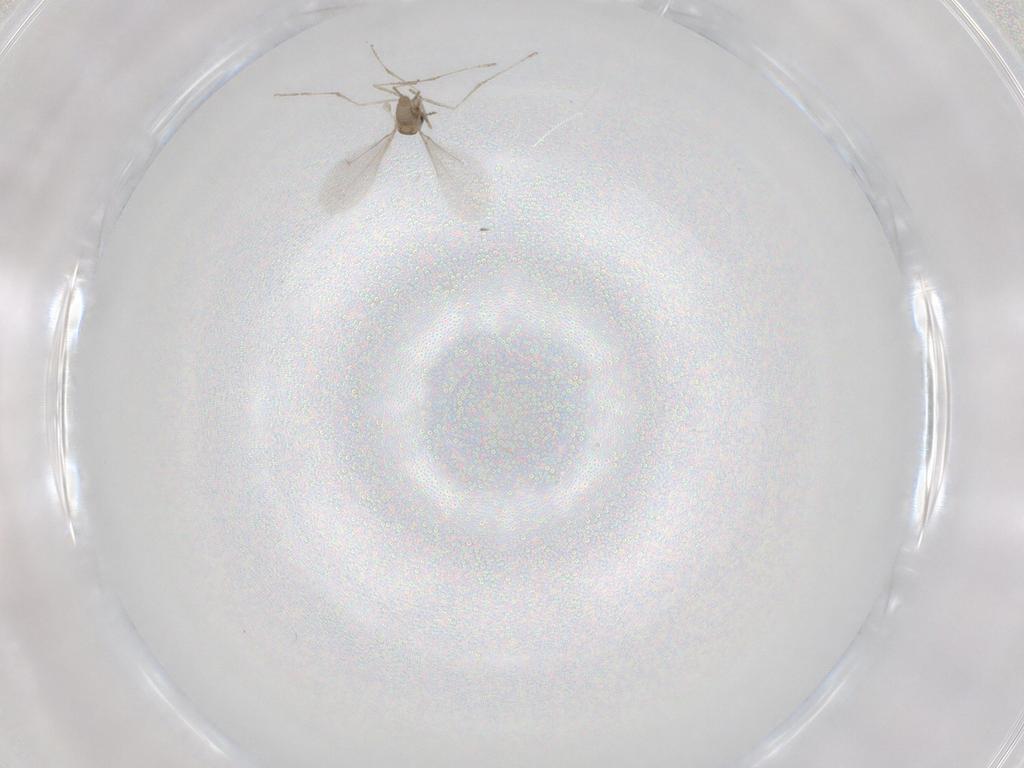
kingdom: Animalia
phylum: Arthropoda
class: Insecta
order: Diptera
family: Cecidomyiidae
